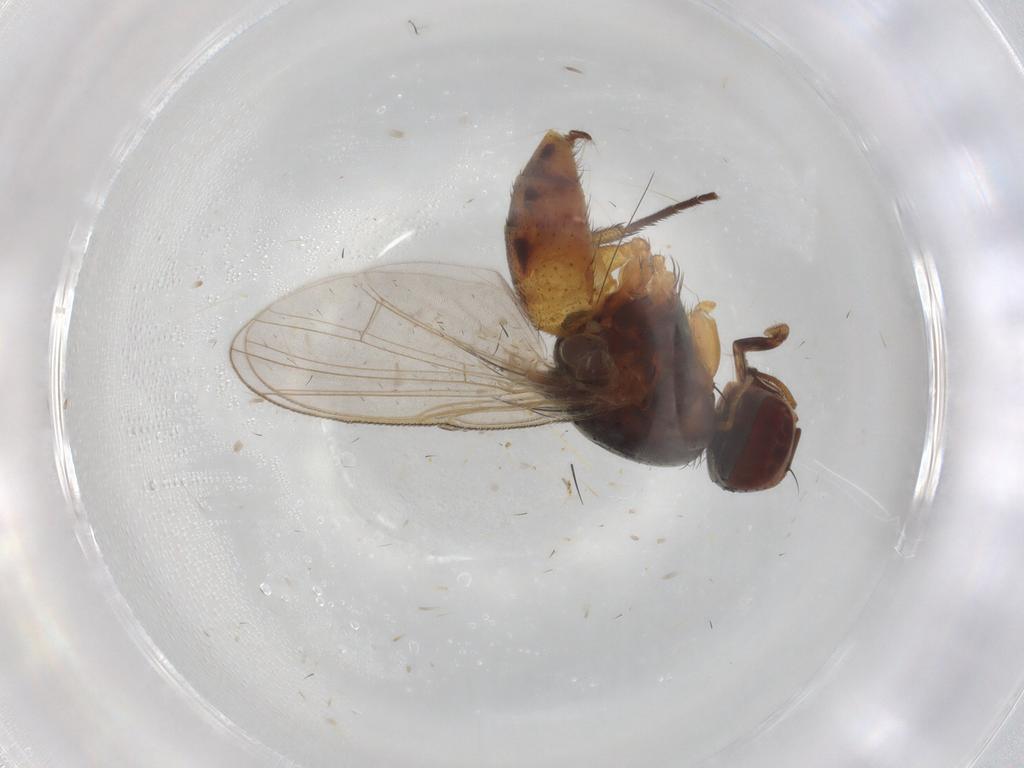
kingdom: Animalia
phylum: Arthropoda
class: Insecta
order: Diptera
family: Muscidae
